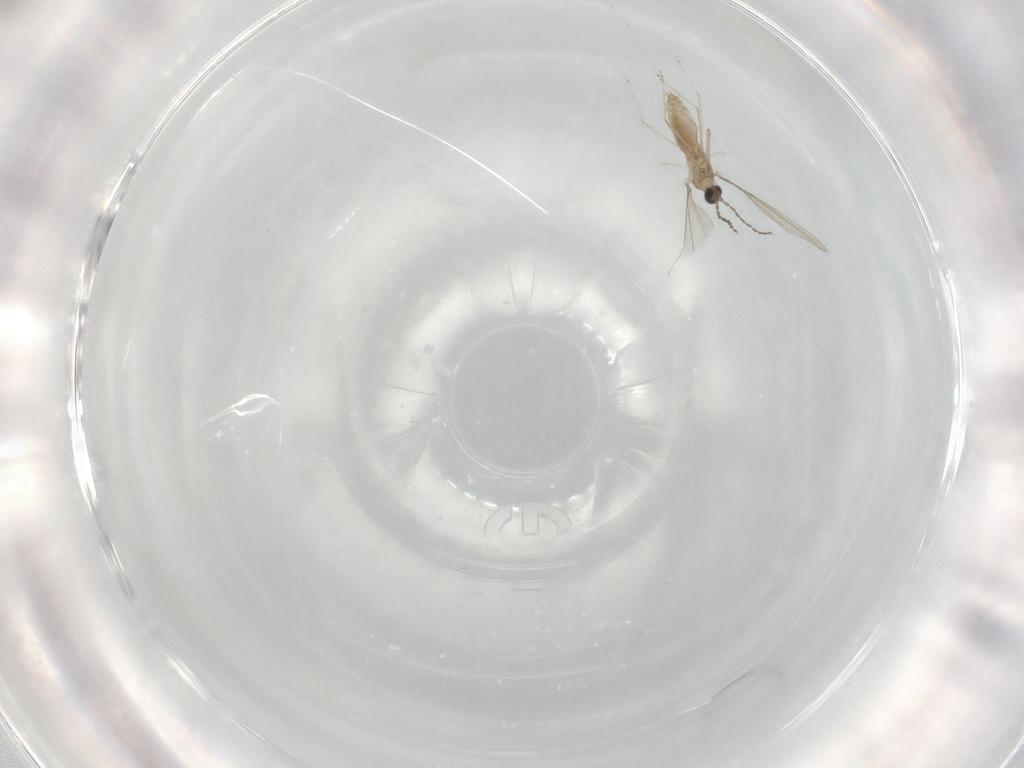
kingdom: Animalia
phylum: Arthropoda
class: Insecta
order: Diptera
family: Cecidomyiidae
